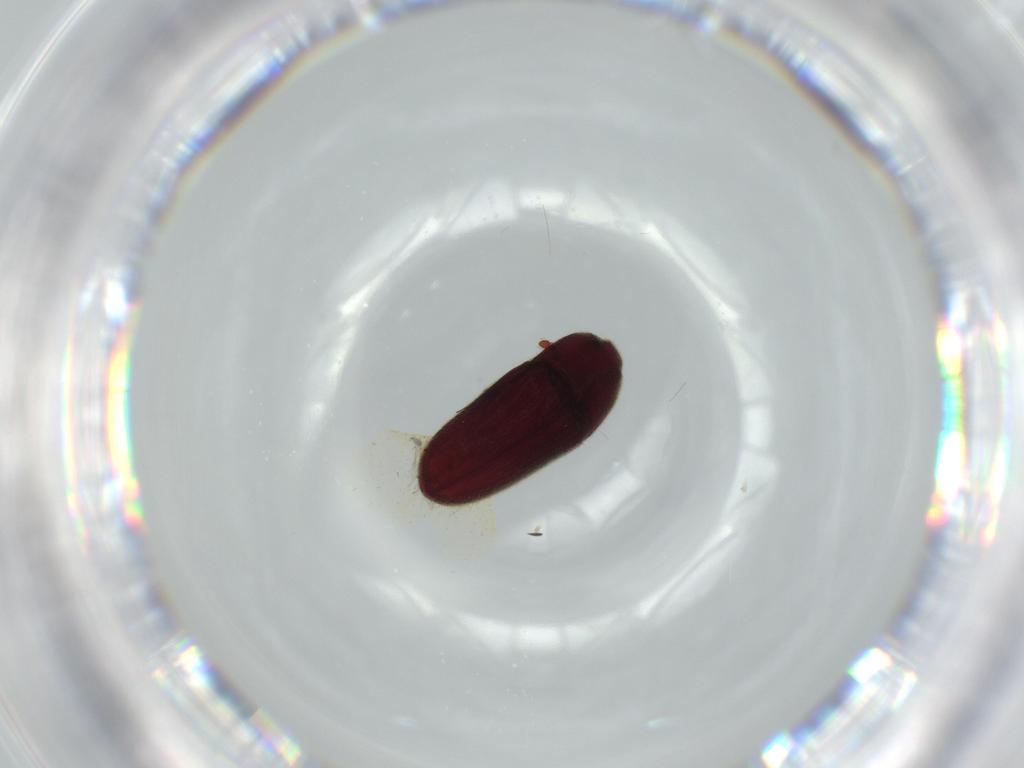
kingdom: Animalia
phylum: Arthropoda
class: Insecta
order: Coleoptera
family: Throscidae
